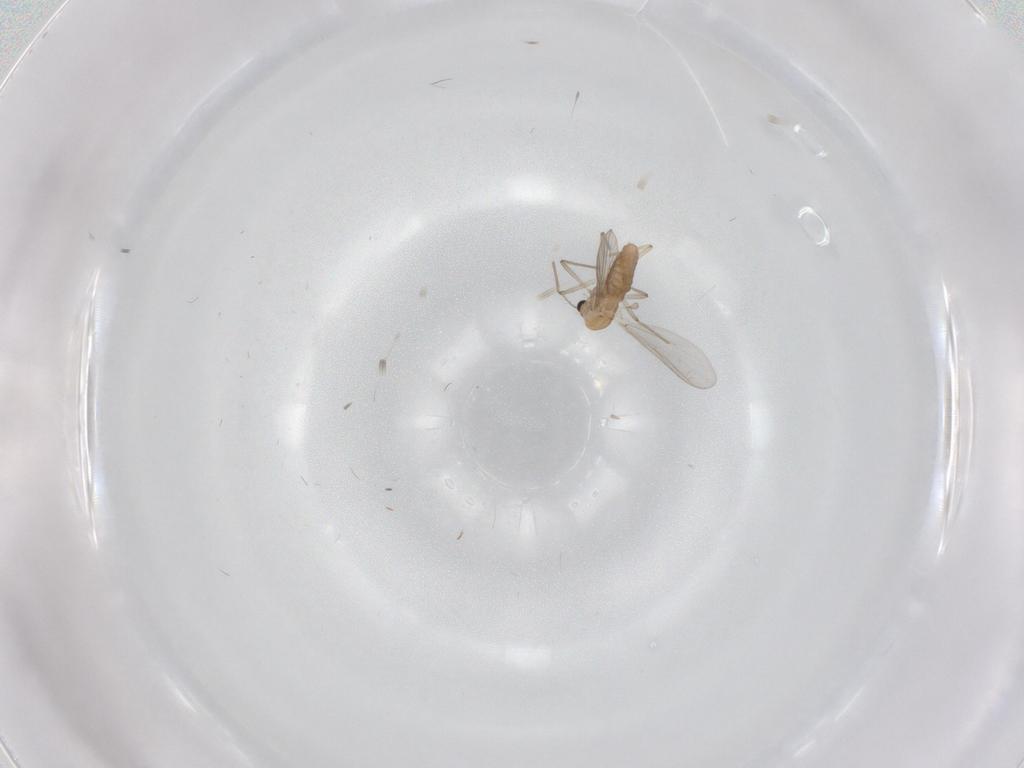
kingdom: Animalia
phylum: Arthropoda
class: Insecta
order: Diptera
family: Chironomidae
